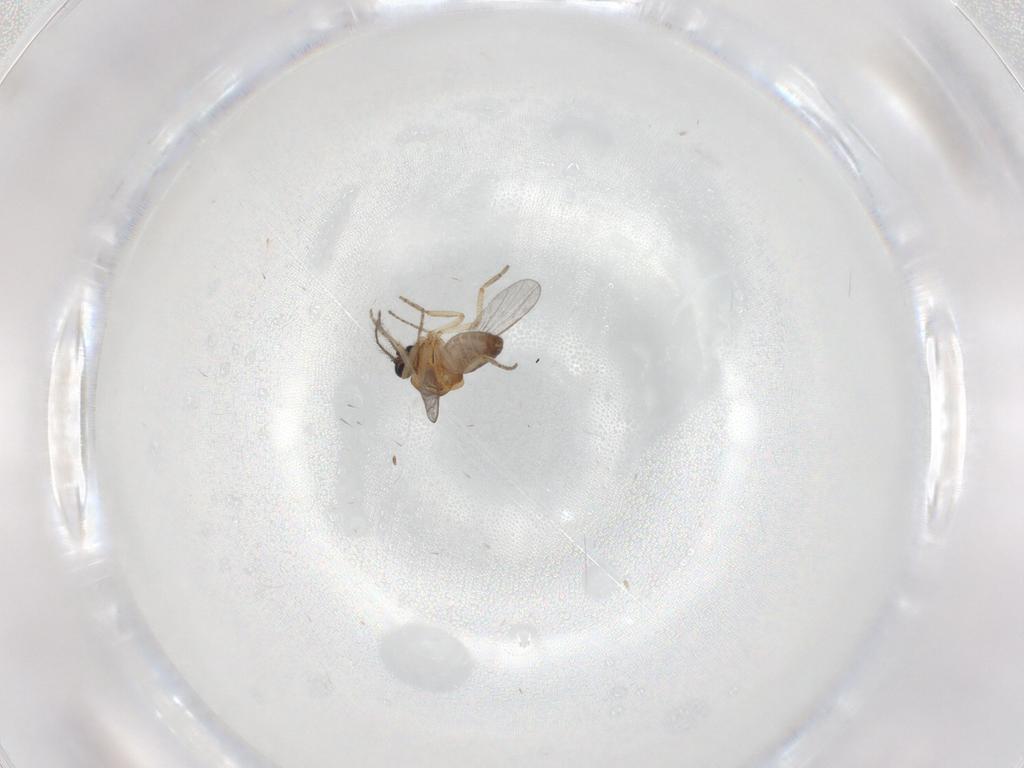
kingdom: Animalia
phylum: Arthropoda
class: Insecta
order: Diptera
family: Ceratopogonidae
